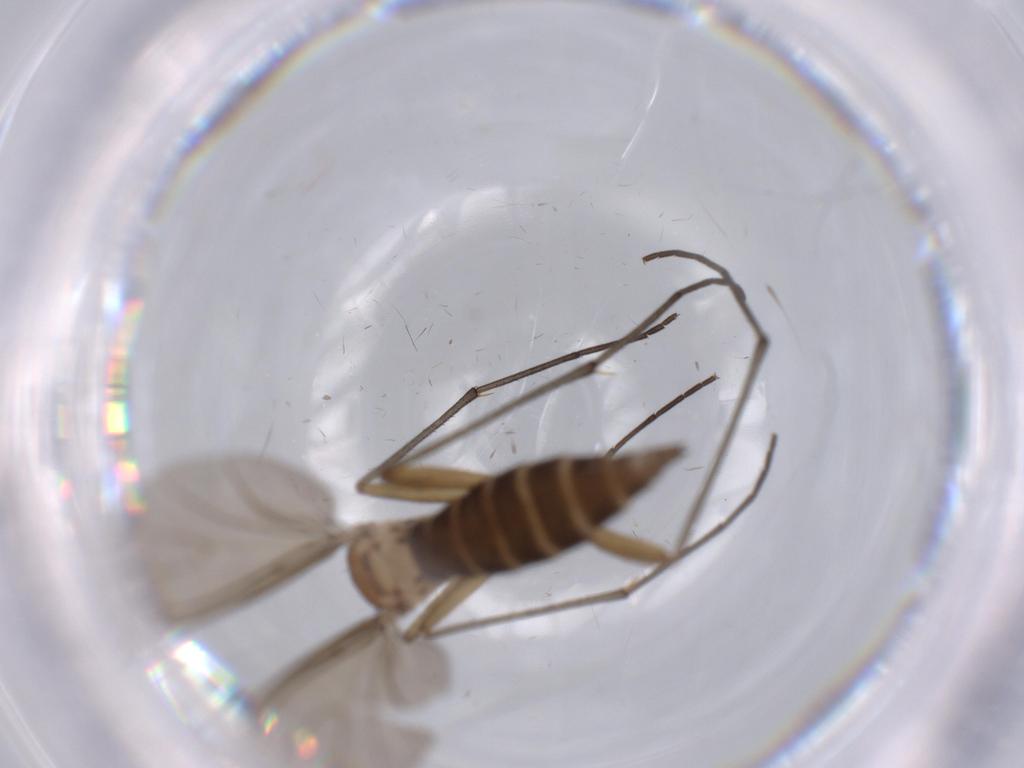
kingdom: Animalia
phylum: Arthropoda
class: Insecta
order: Diptera
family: Sciaridae
